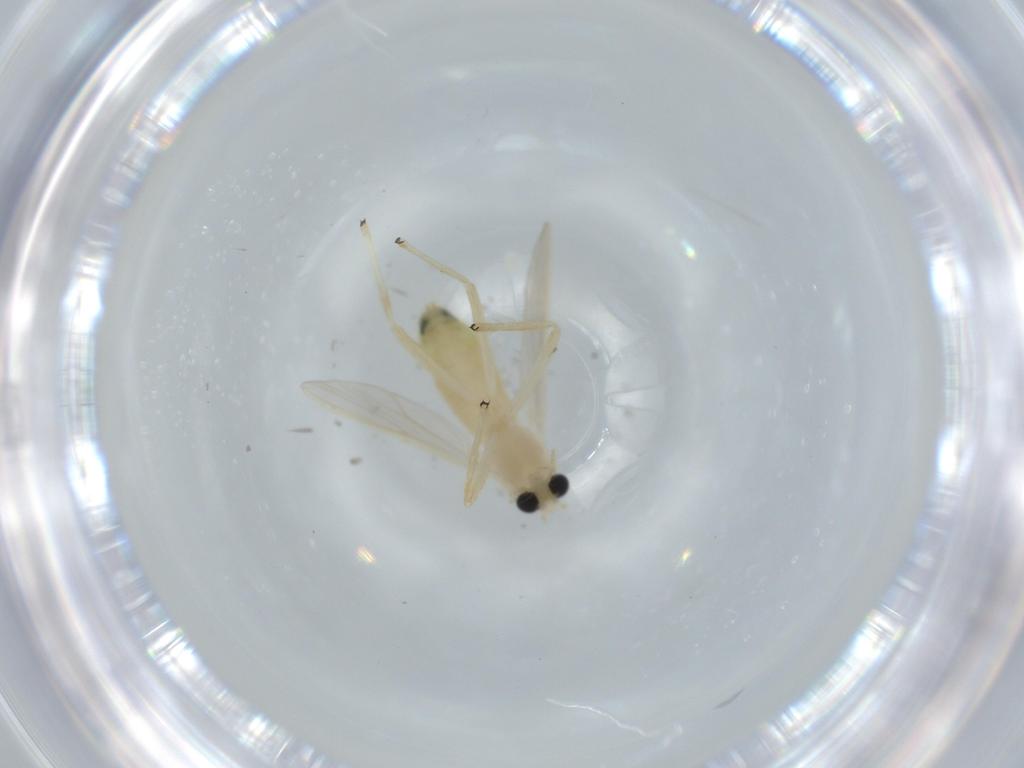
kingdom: Animalia
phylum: Arthropoda
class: Insecta
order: Diptera
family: Chironomidae
